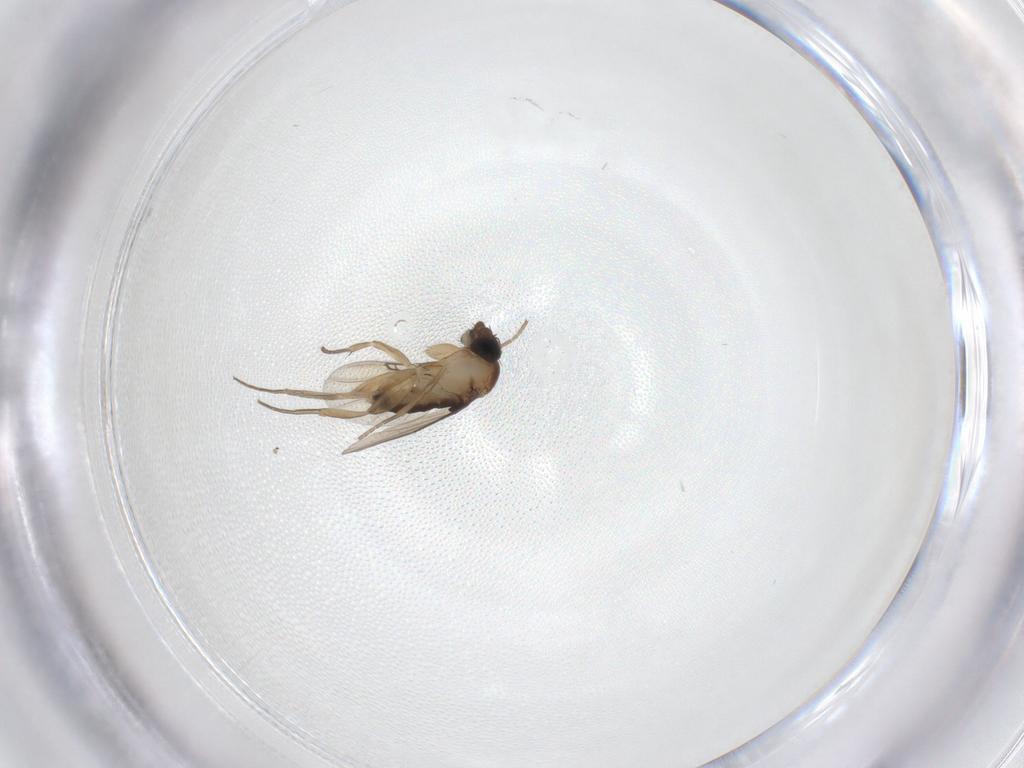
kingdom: Animalia
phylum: Arthropoda
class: Insecta
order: Diptera
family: Phoridae
